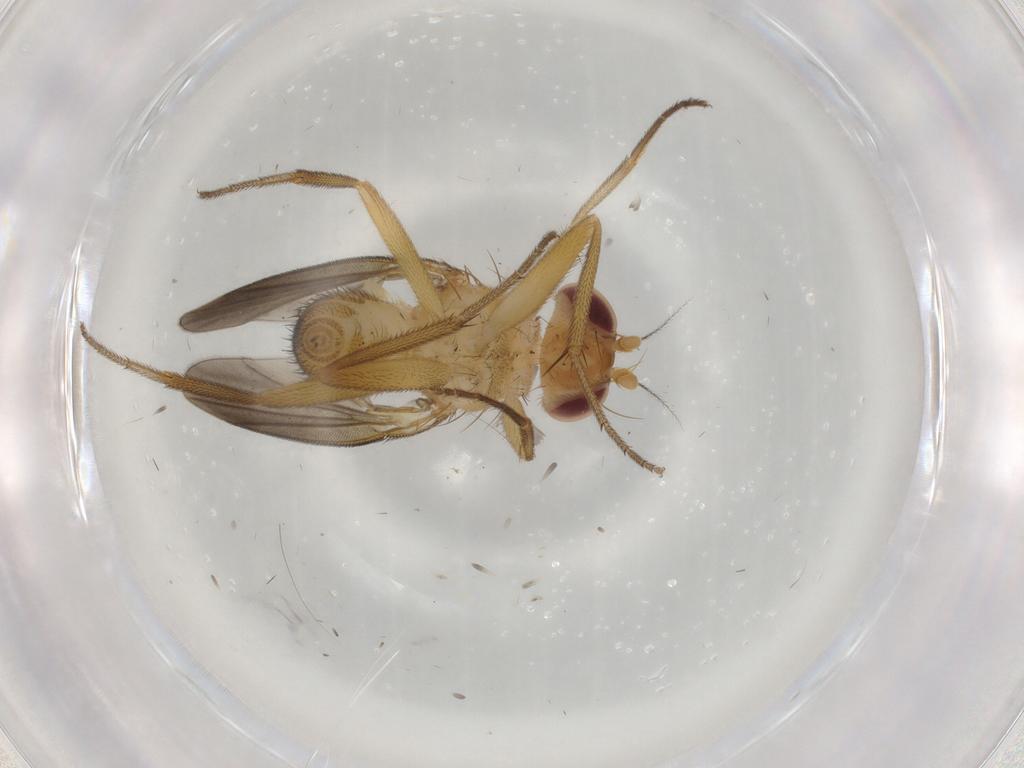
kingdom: Animalia
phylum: Arthropoda
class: Insecta
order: Diptera
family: Clusiidae
